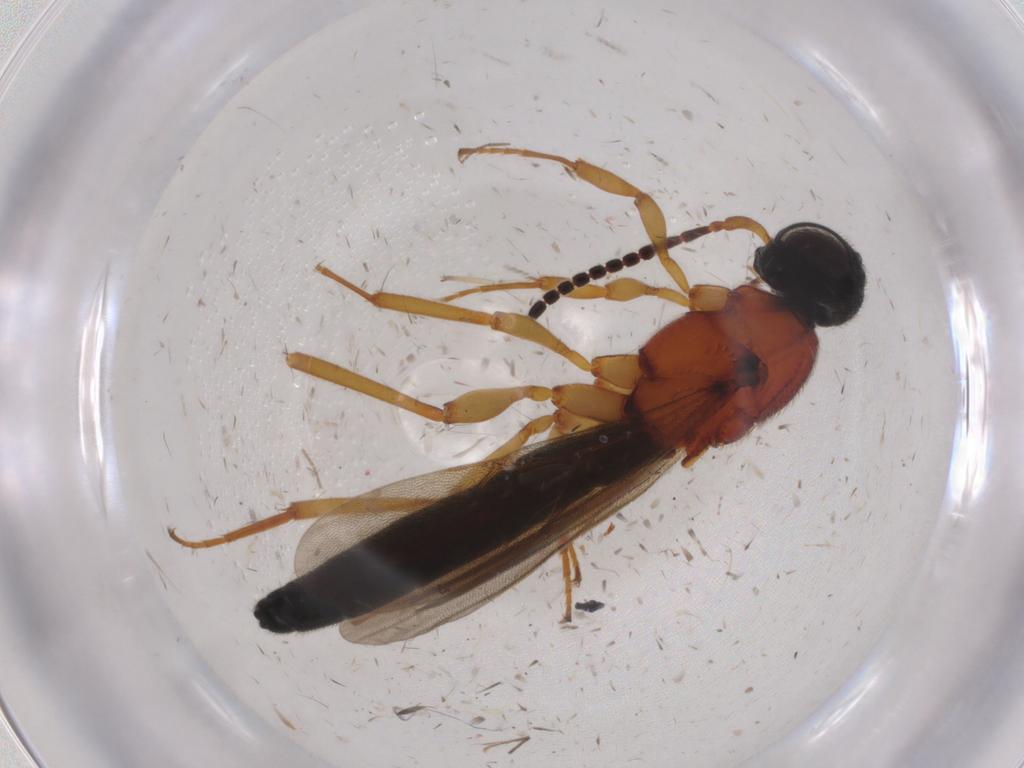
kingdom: Animalia
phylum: Arthropoda
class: Insecta
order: Hymenoptera
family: Scelionidae
